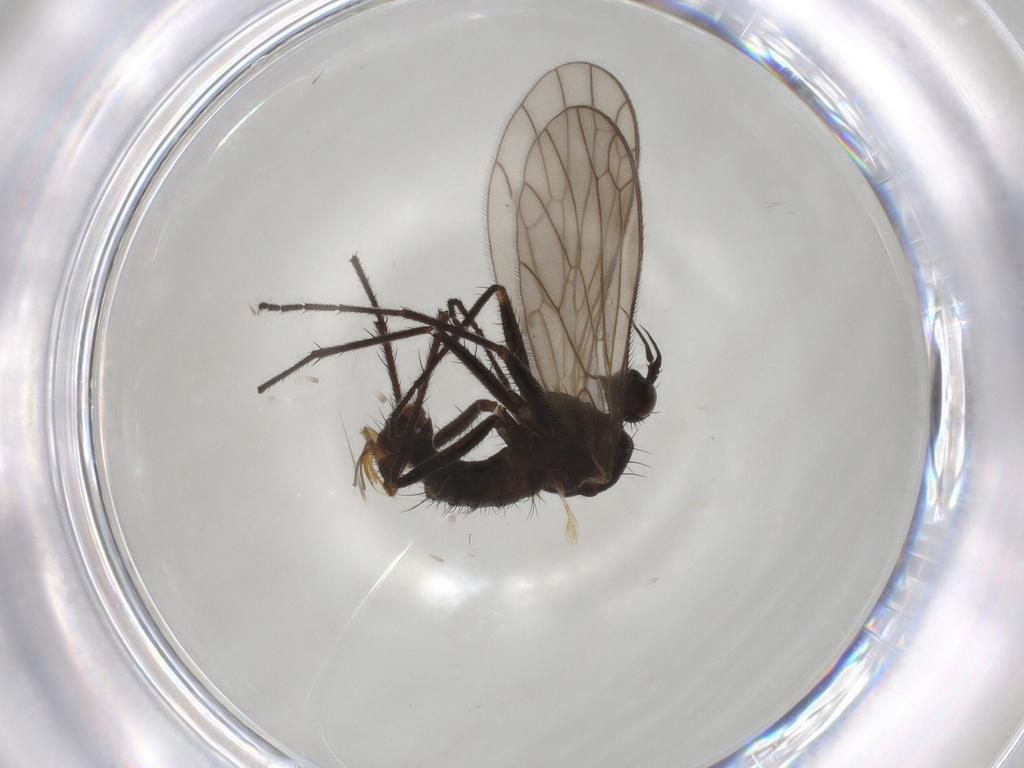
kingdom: Animalia
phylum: Arthropoda
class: Insecta
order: Diptera
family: Empididae
